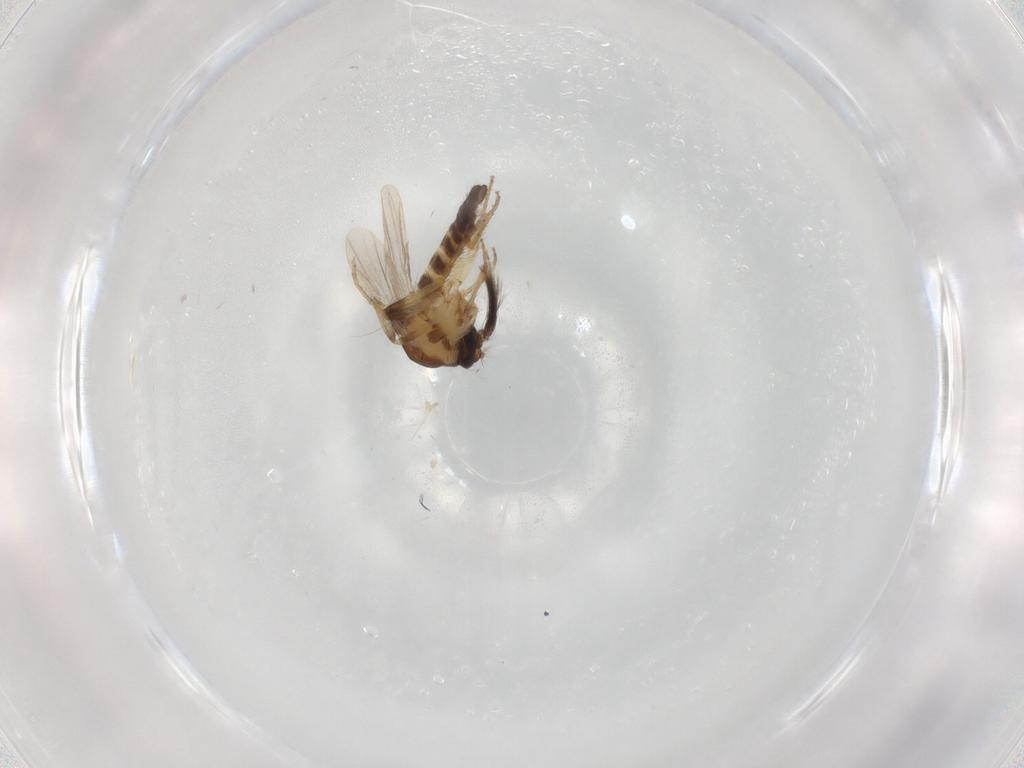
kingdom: Animalia
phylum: Arthropoda
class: Insecta
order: Diptera
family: Ceratopogonidae
